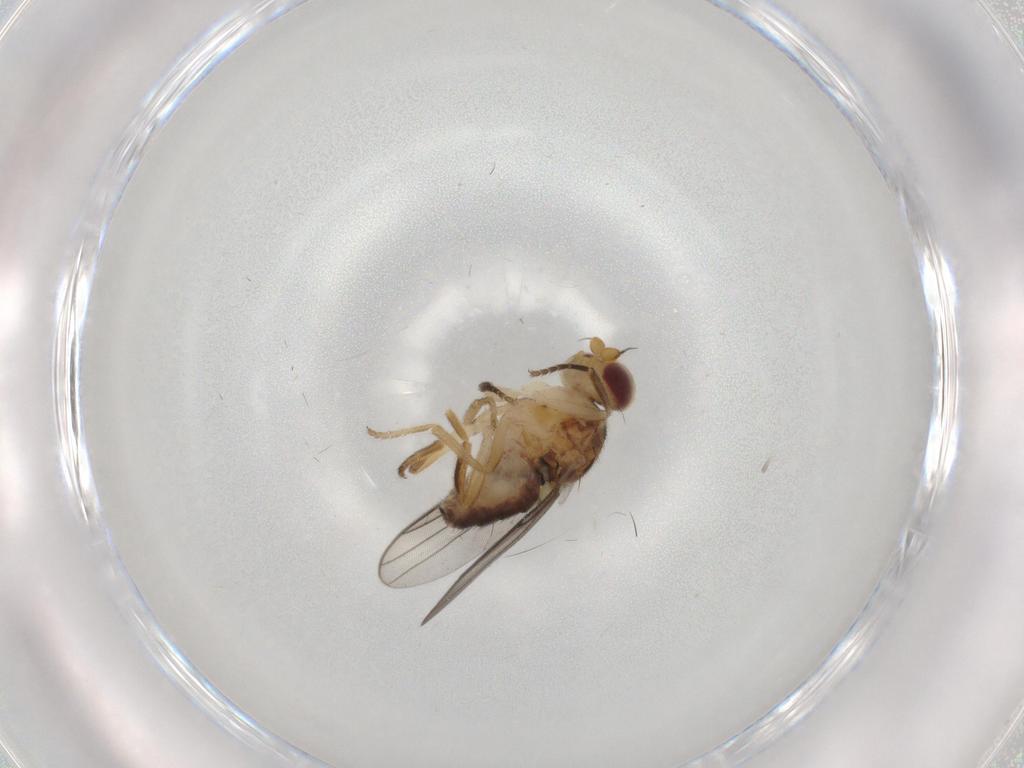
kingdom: Animalia
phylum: Arthropoda
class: Insecta
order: Diptera
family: Chloropidae
